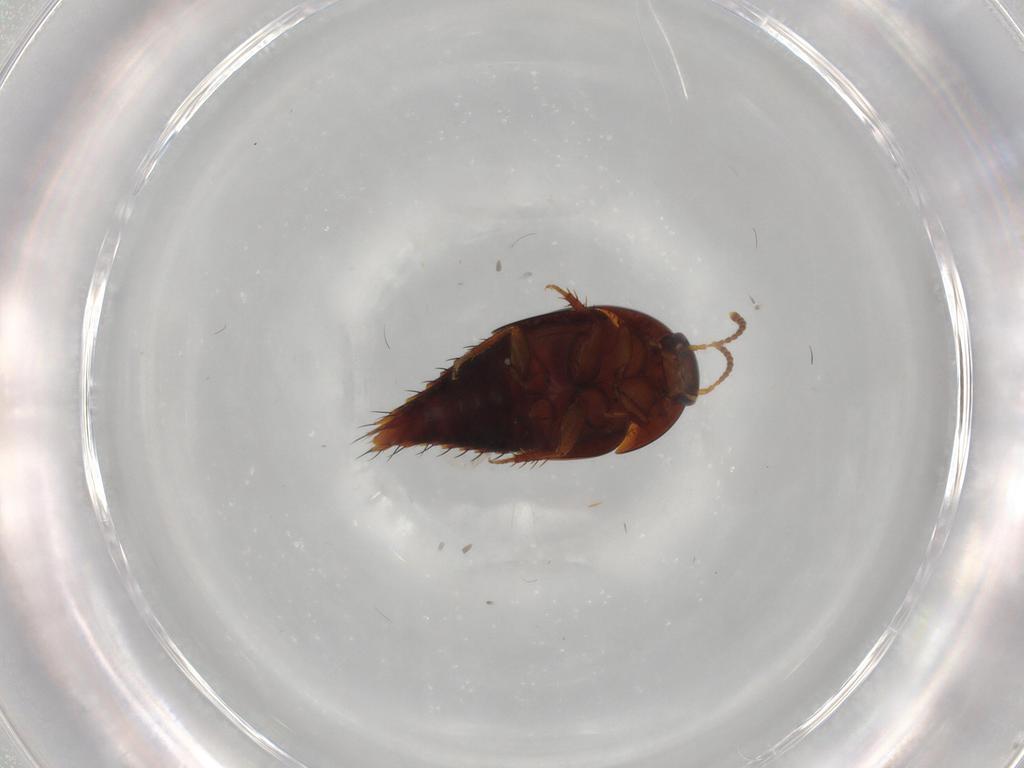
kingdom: Animalia
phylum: Arthropoda
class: Insecta
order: Coleoptera
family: Staphylinidae
